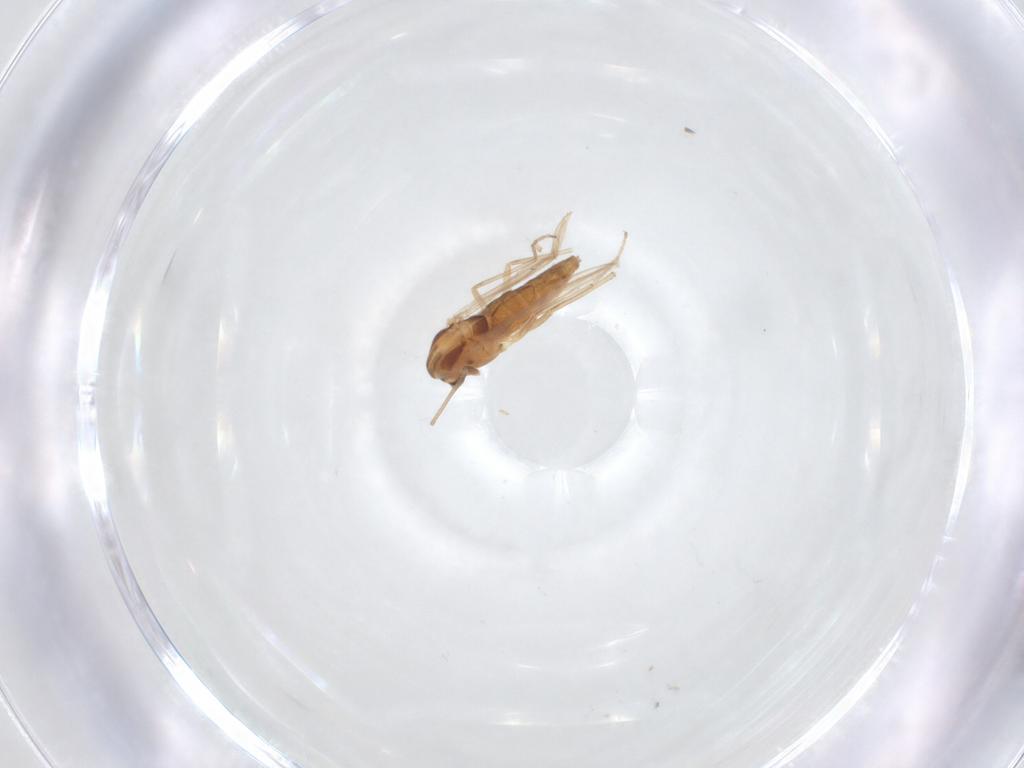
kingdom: Animalia
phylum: Arthropoda
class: Insecta
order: Diptera
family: Chironomidae
